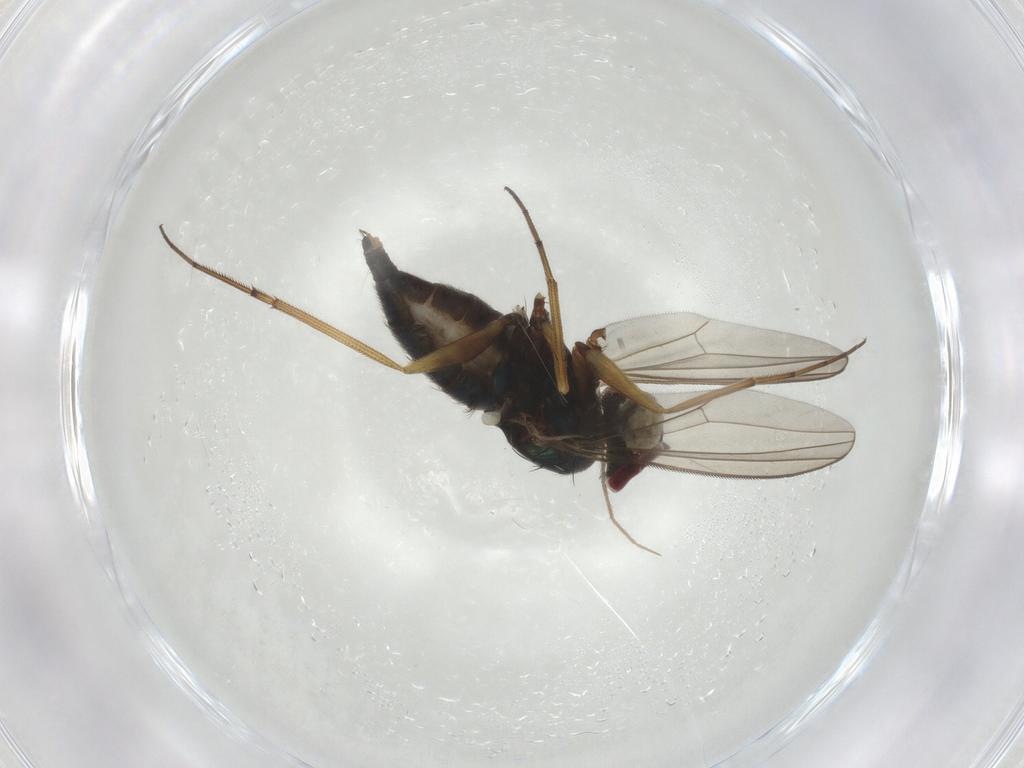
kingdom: Animalia
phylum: Arthropoda
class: Insecta
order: Diptera
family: Dolichopodidae
